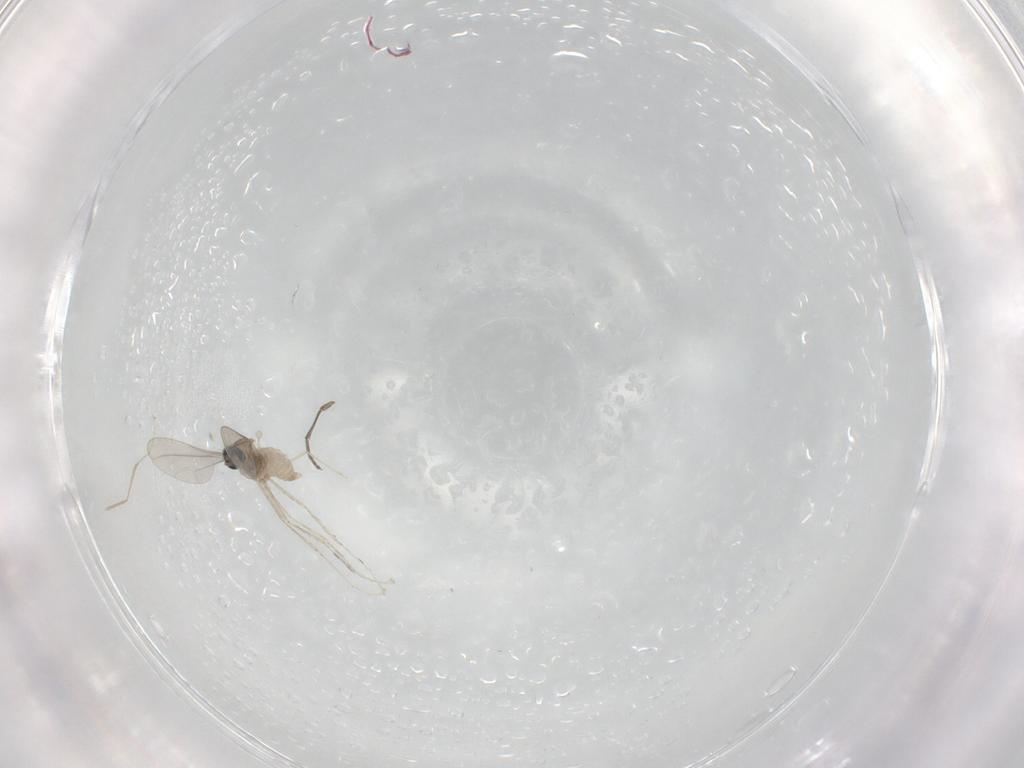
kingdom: Animalia
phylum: Arthropoda
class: Insecta
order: Diptera
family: Sciaridae
